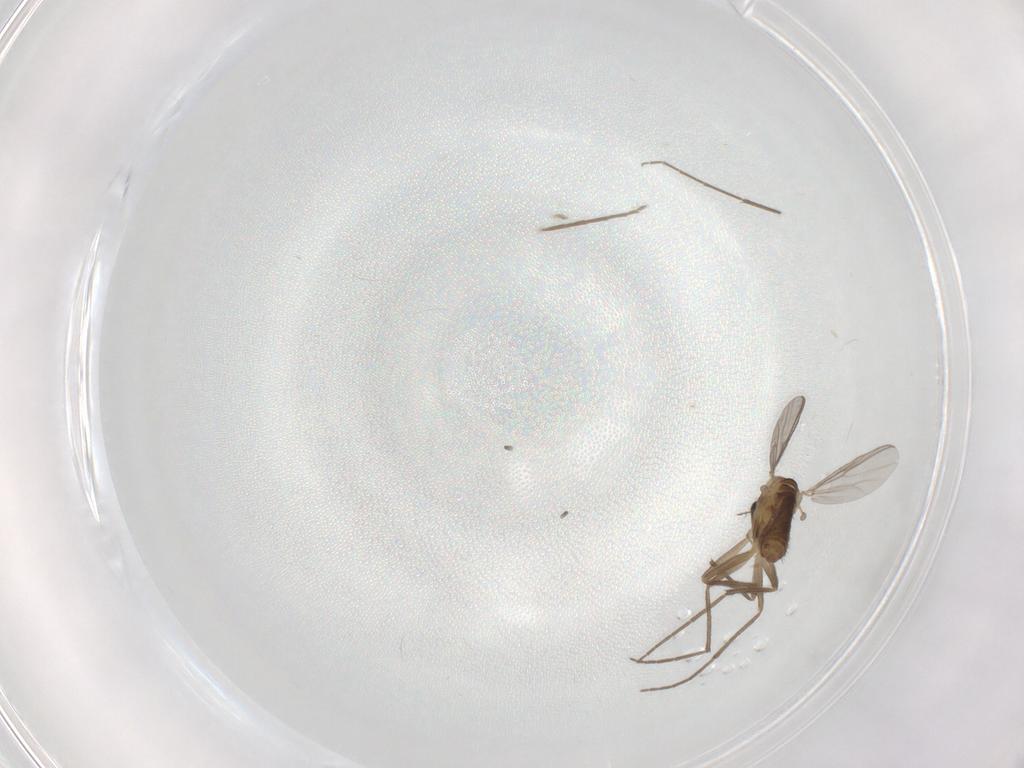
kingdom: Animalia
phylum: Arthropoda
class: Insecta
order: Diptera
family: Chironomidae
